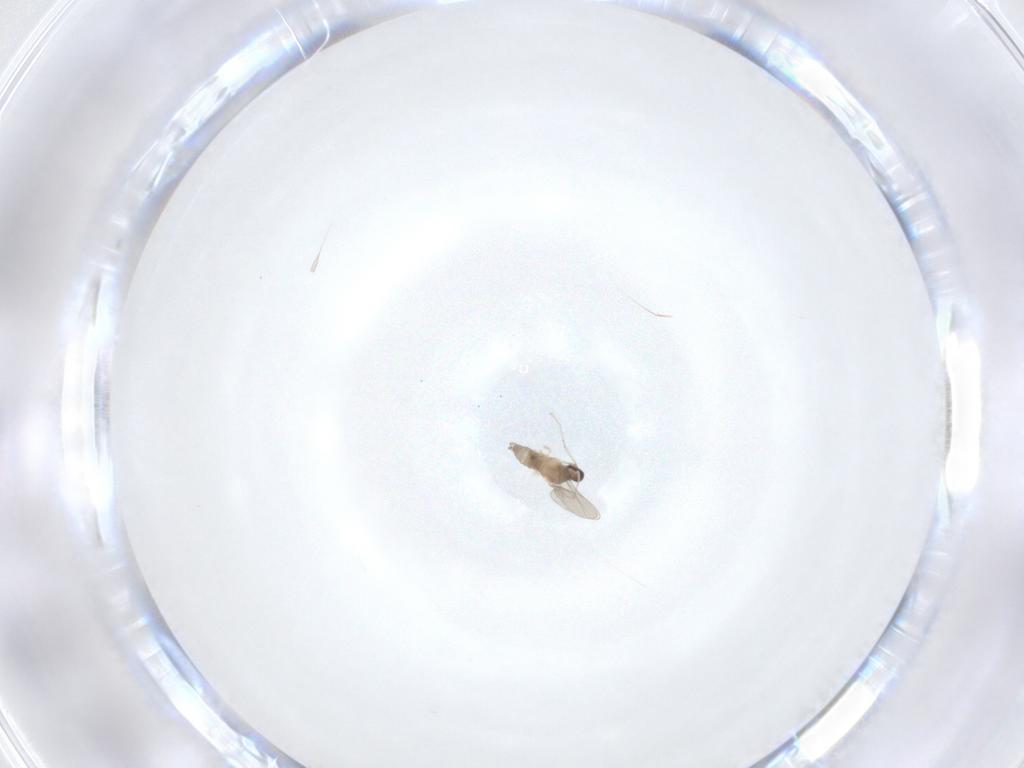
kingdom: Animalia
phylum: Arthropoda
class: Insecta
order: Diptera
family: Cecidomyiidae
